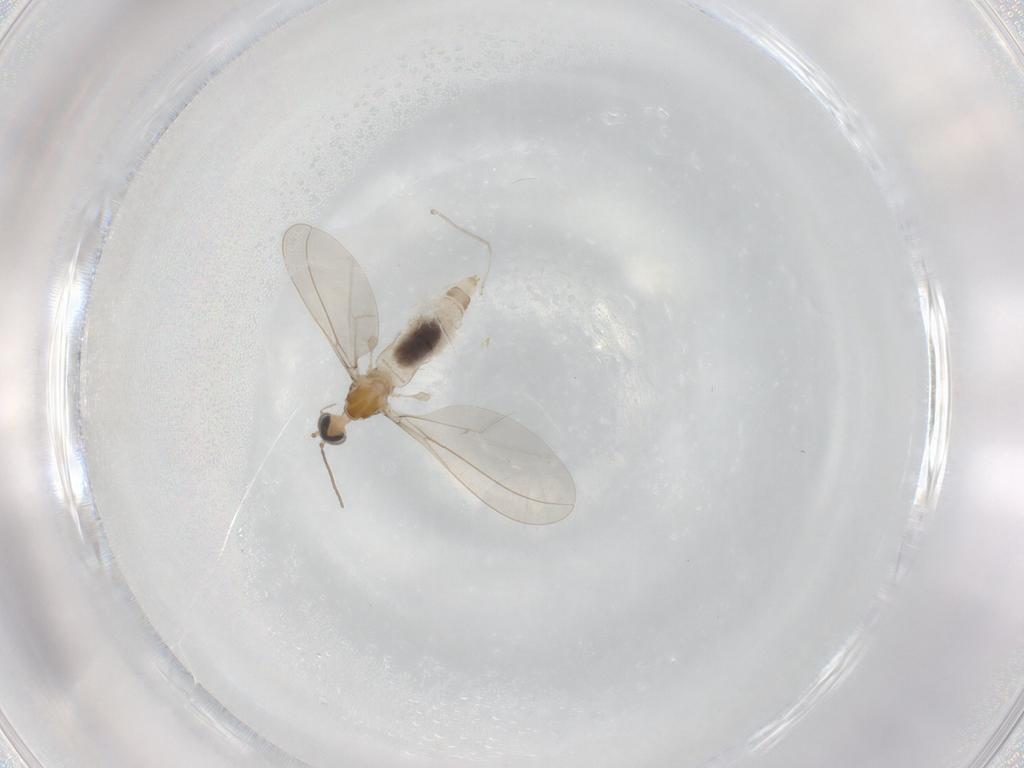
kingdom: Animalia
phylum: Arthropoda
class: Insecta
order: Diptera
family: Cecidomyiidae
